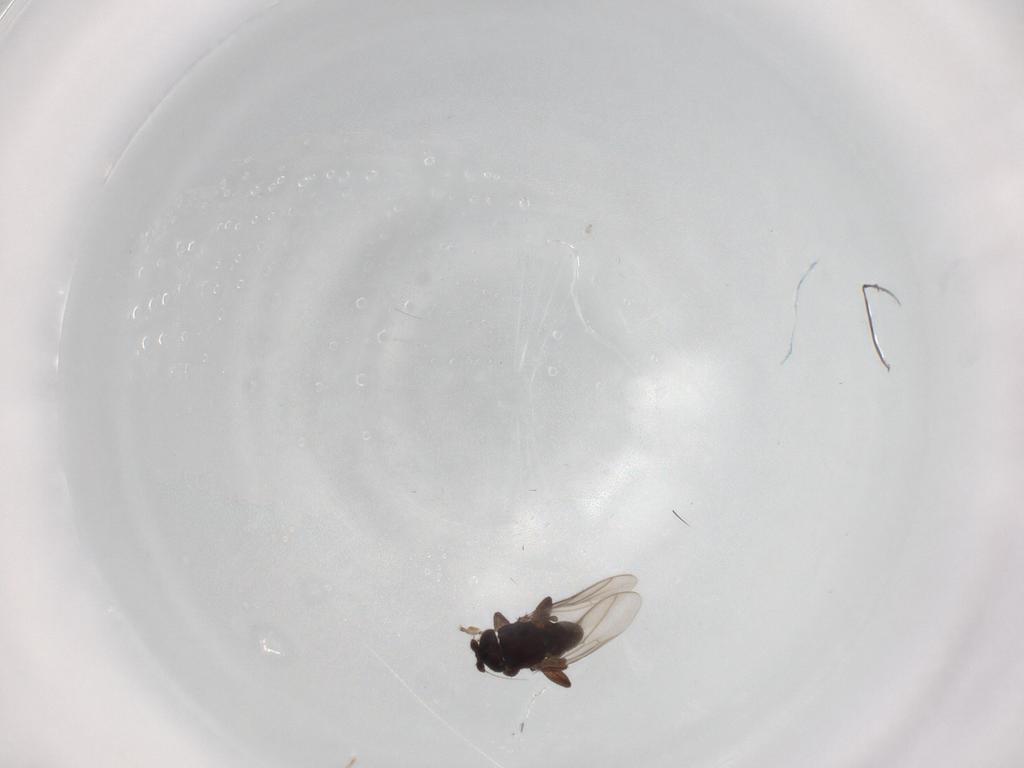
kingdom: Animalia
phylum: Arthropoda
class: Insecta
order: Diptera
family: Sphaeroceridae
